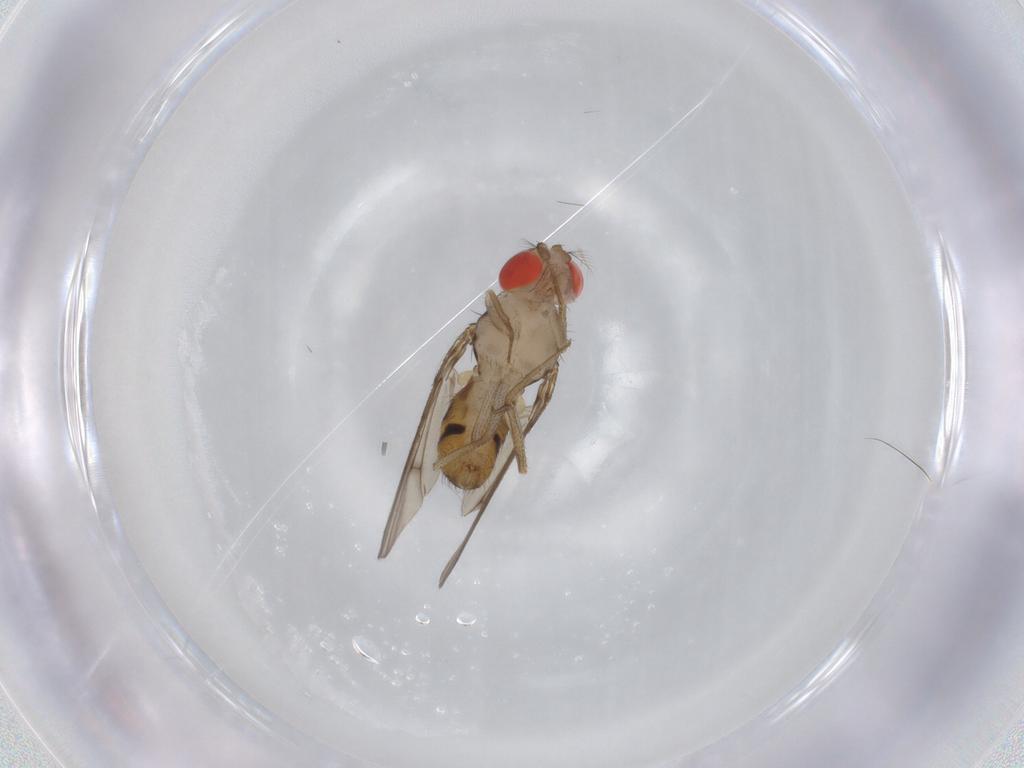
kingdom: Animalia
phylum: Arthropoda
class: Insecta
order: Diptera
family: Drosophilidae
